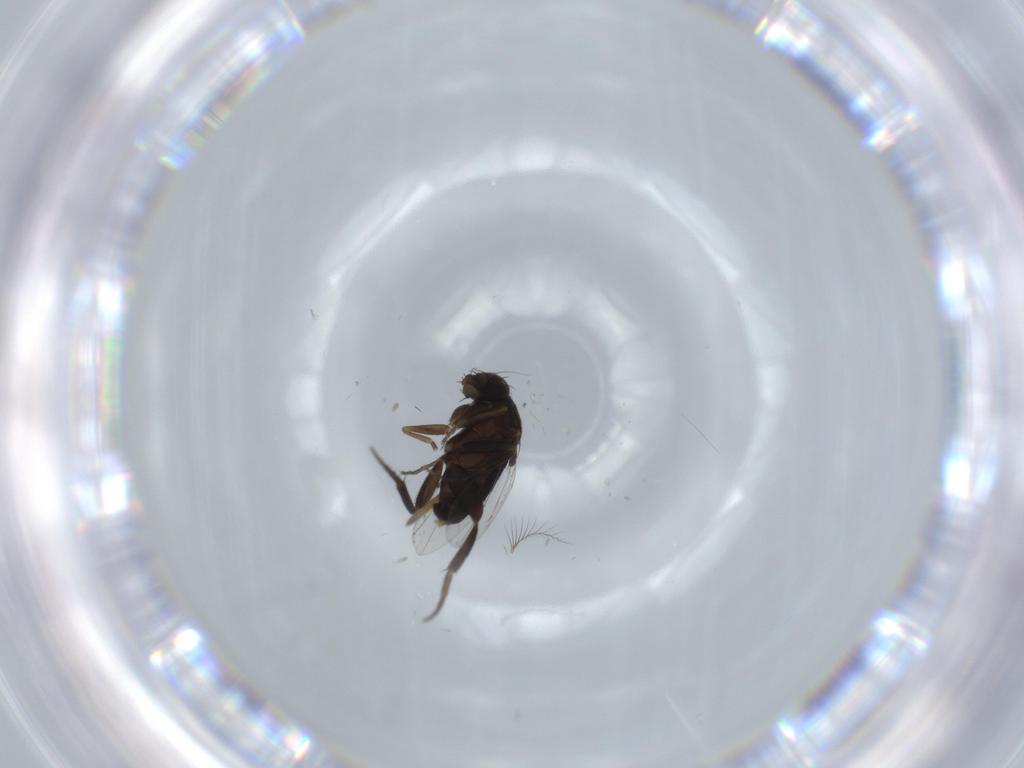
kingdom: Animalia
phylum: Arthropoda
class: Insecta
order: Diptera
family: Phoridae
